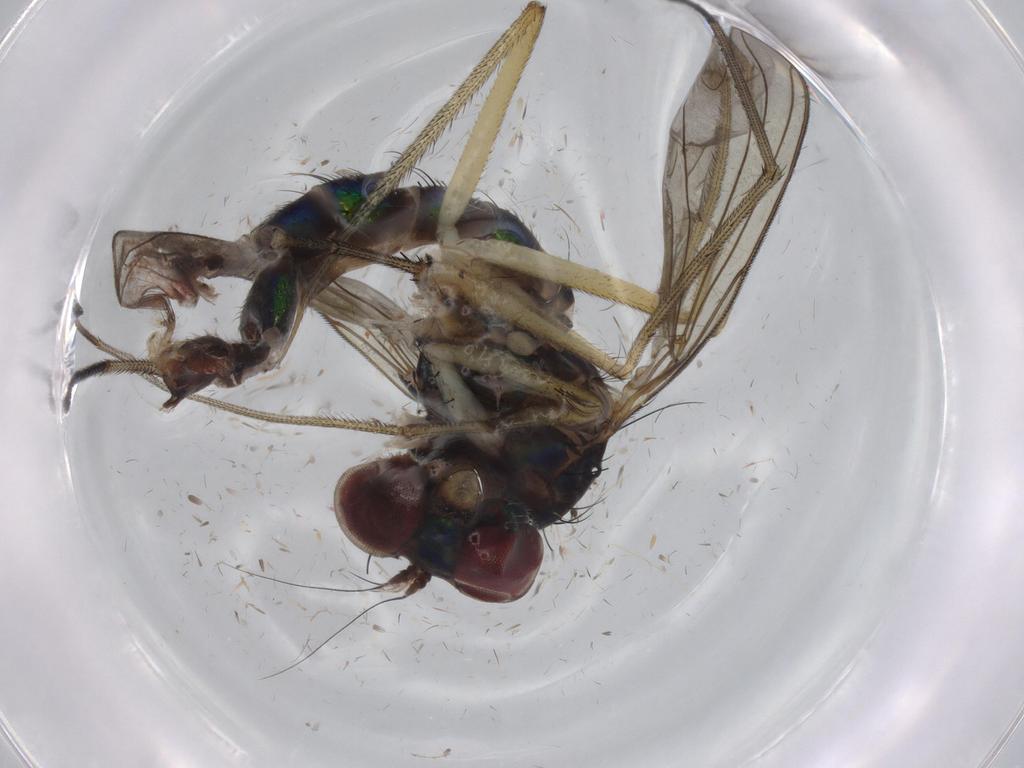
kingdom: Animalia
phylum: Arthropoda
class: Insecta
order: Diptera
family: Dolichopodidae
